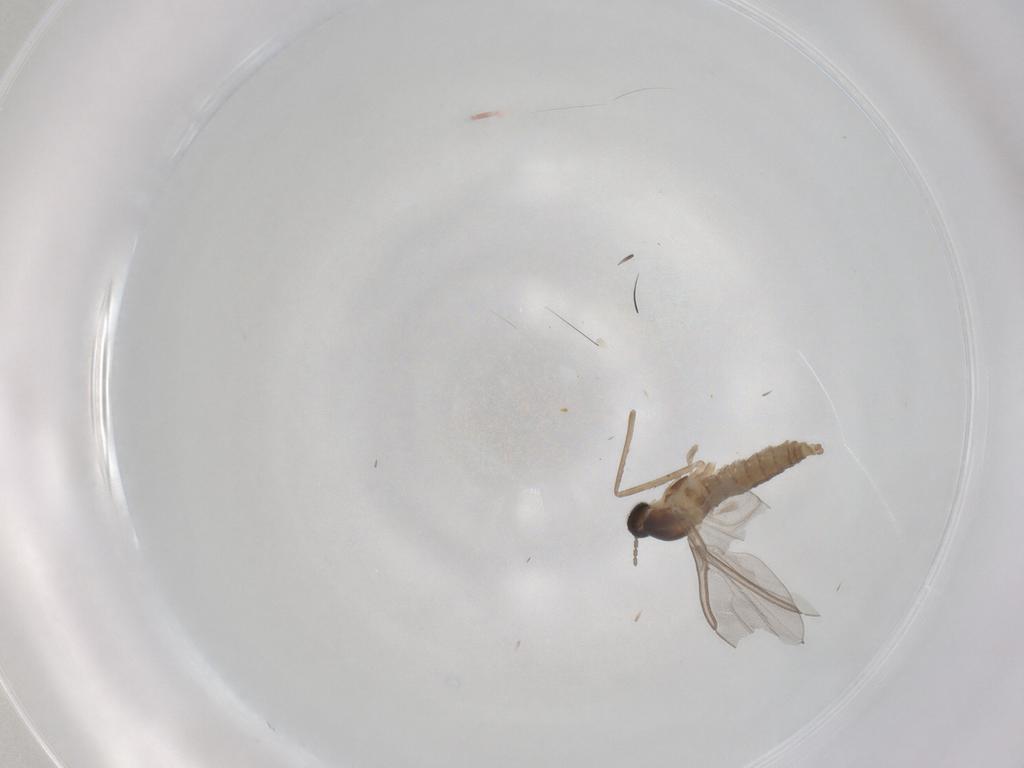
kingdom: Animalia
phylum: Arthropoda
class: Insecta
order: Diptera
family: Cecidomyiidae
